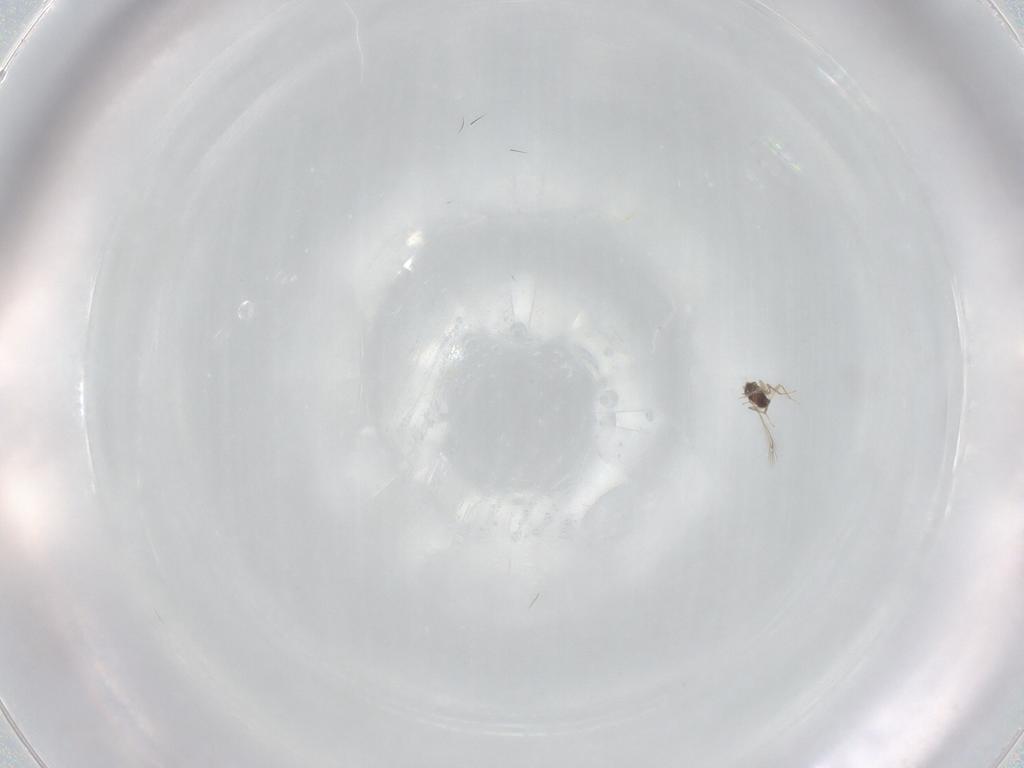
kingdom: Animalia
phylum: Arthropoda
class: Insecta
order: Hymenoptera
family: Mymaridae
